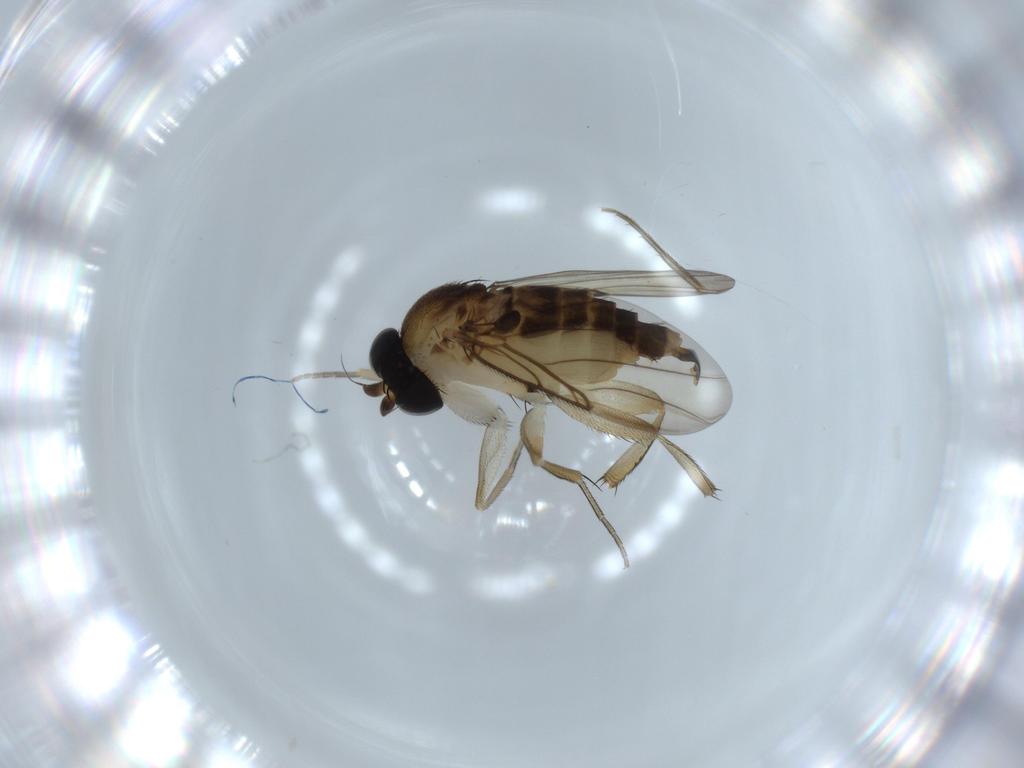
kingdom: Animalia
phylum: Arthropoda
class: Insecta
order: Diptera
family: Phoridae
